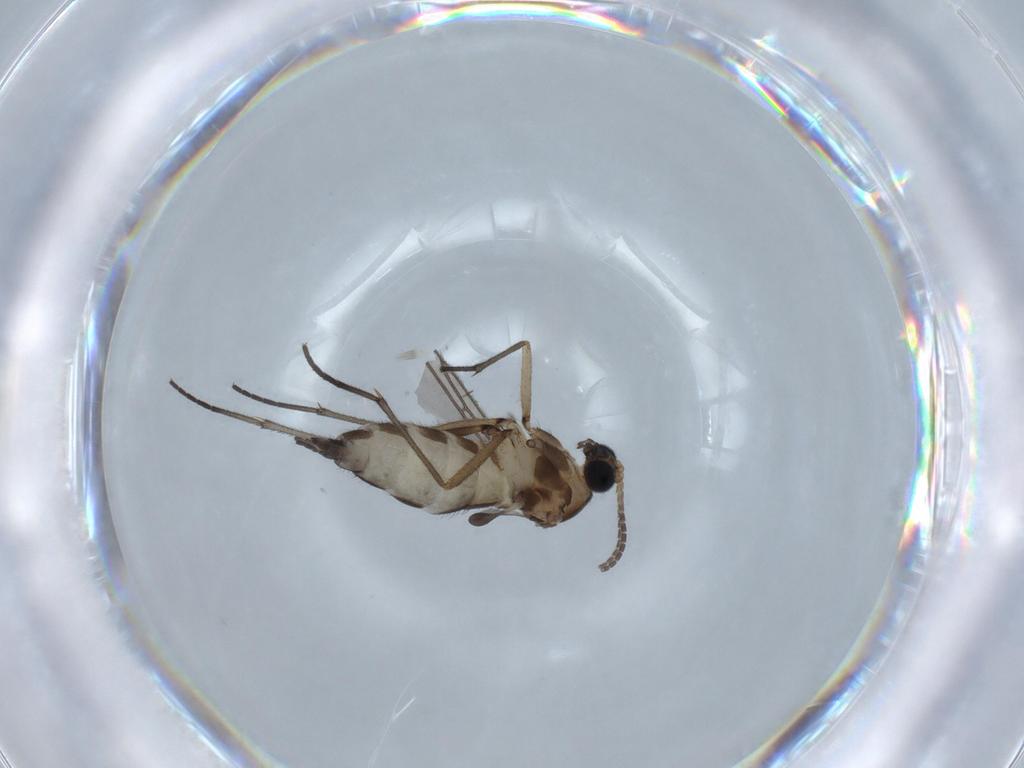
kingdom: Animalia
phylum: Arthropoda
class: Insecta
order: Diptera
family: Sciaridae
